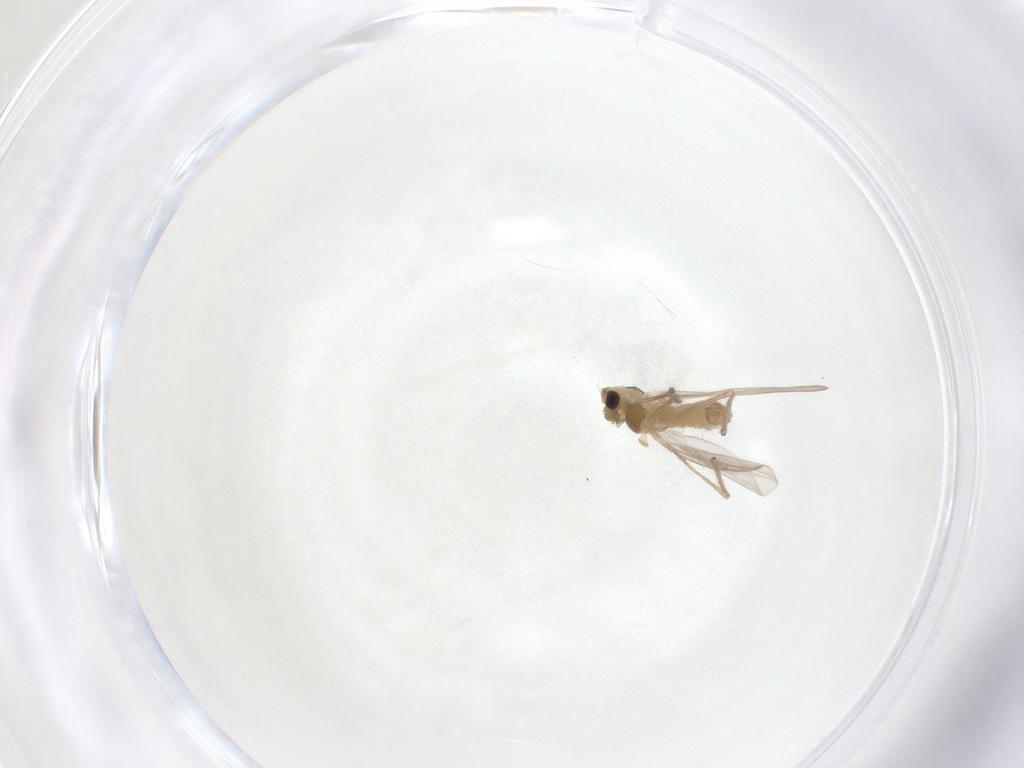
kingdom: Animalia
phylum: Arthropoda
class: Insecta
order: Diptera
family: Chironomidae
